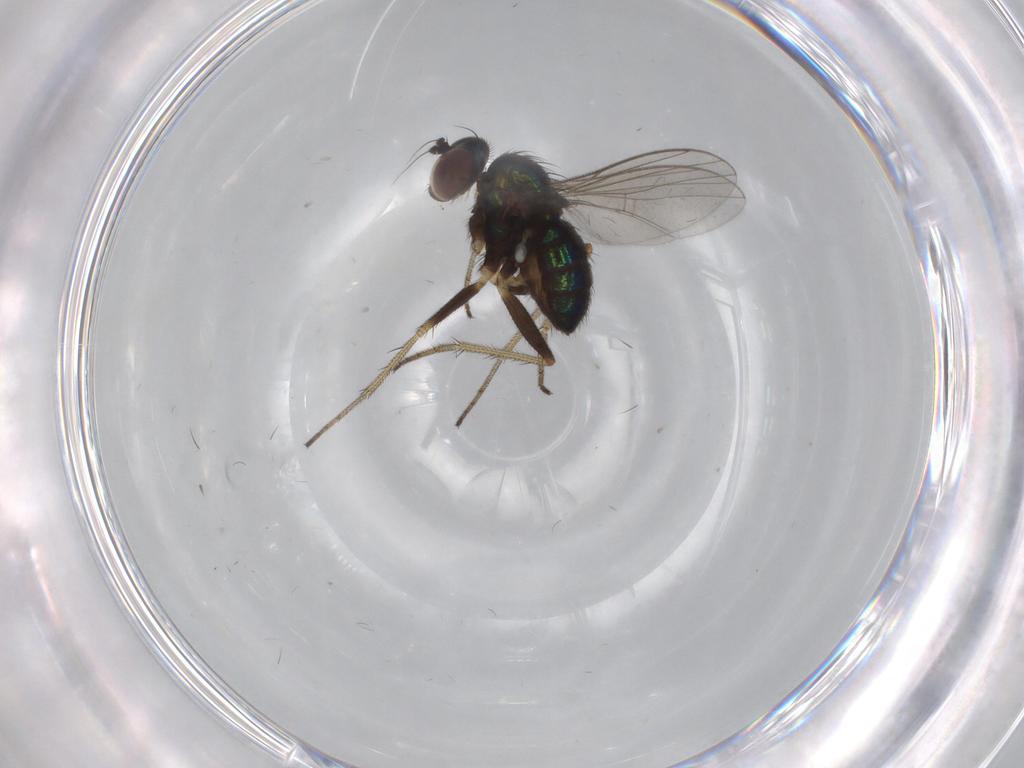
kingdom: Animalia
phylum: Arthropoda
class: Insecta
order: Diptera
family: Dolichopodidae
